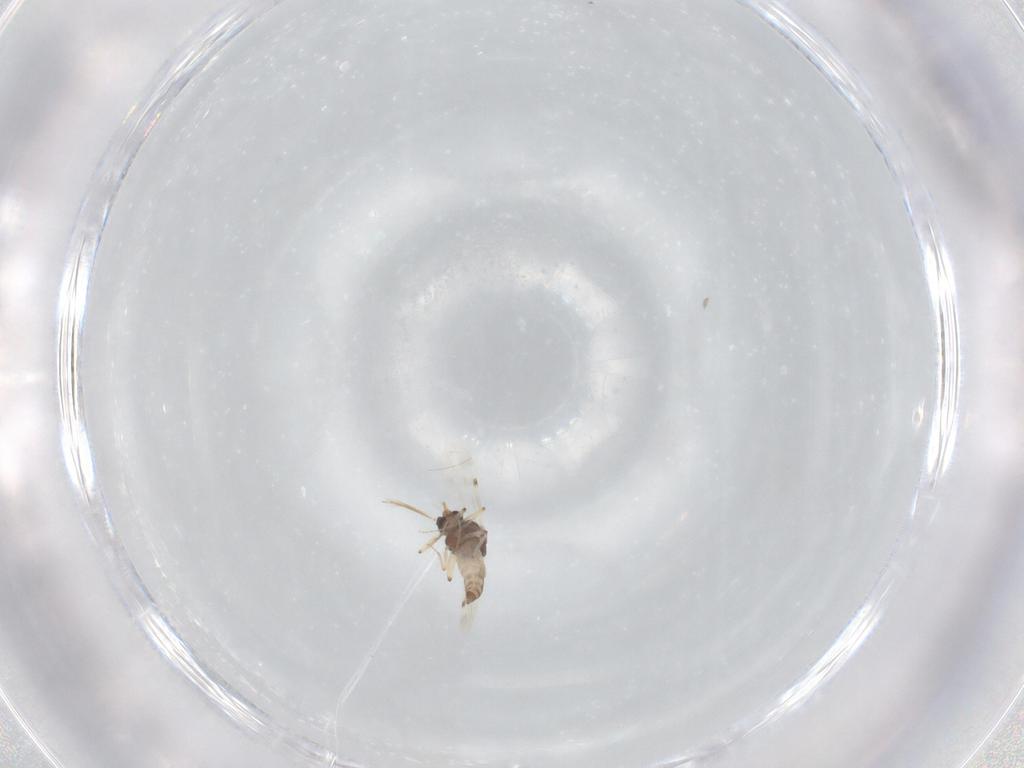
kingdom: Animalia
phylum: Arthropoda
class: Insecta
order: Diptera
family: Ceratopogonidae
